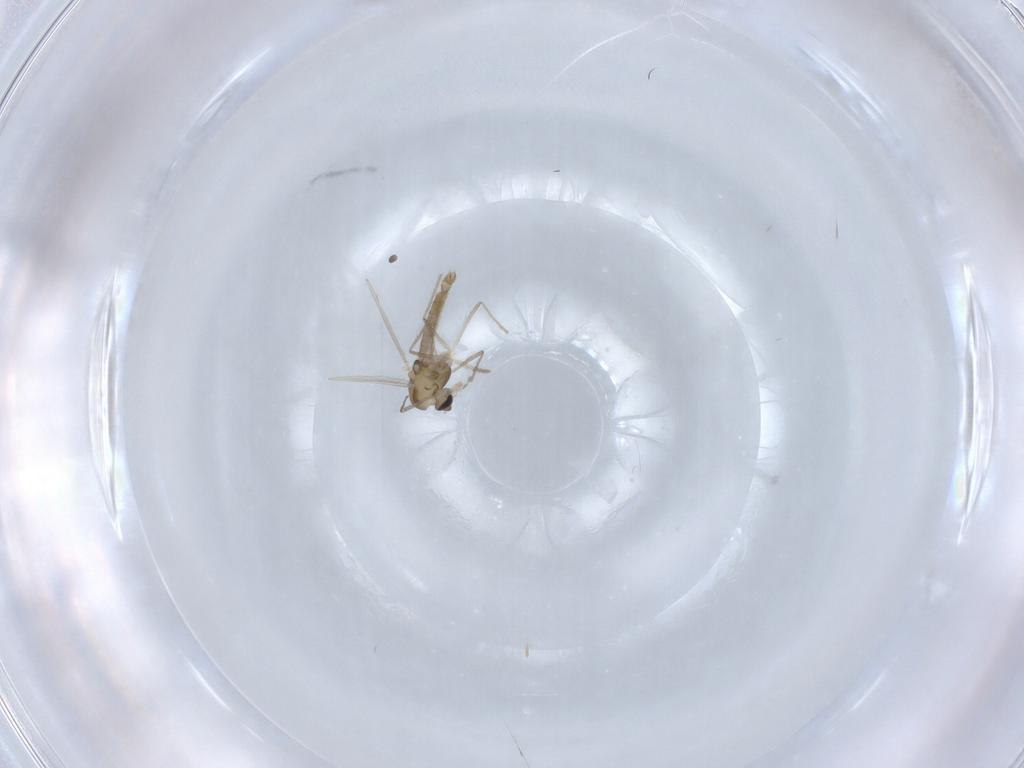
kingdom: Animalia
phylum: Arthropoda
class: Insecta
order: Diptera
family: Chironomidae
